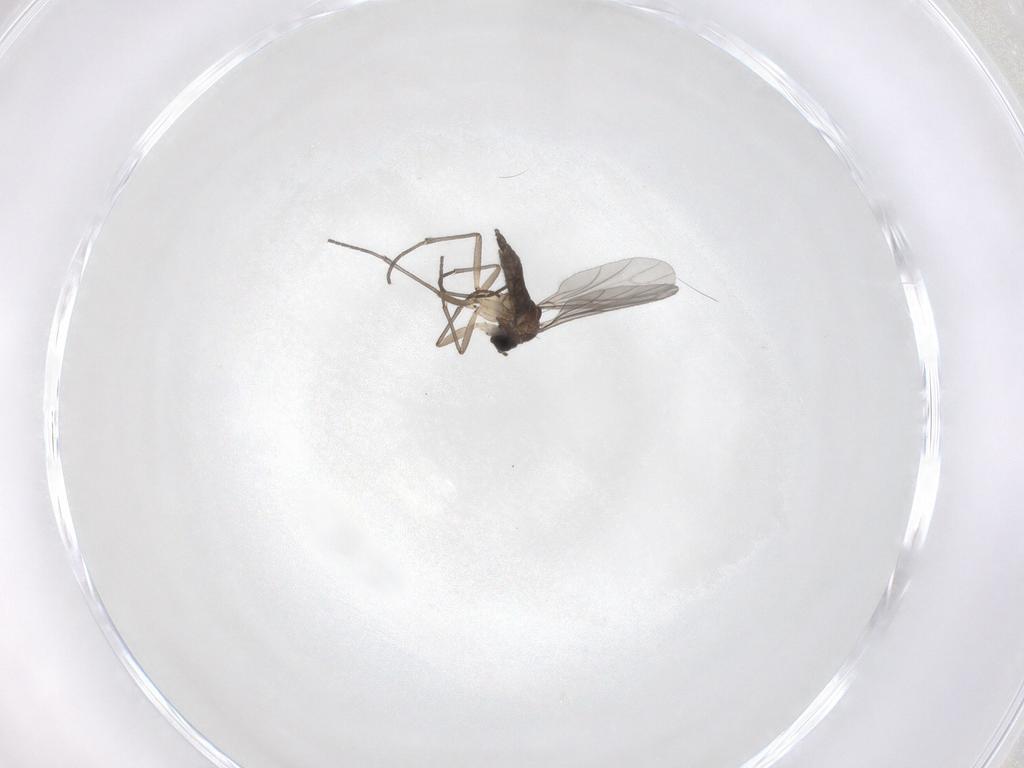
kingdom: Animalia
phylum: Arthropoda
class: Insecta
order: Diptera
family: Sciaridae
